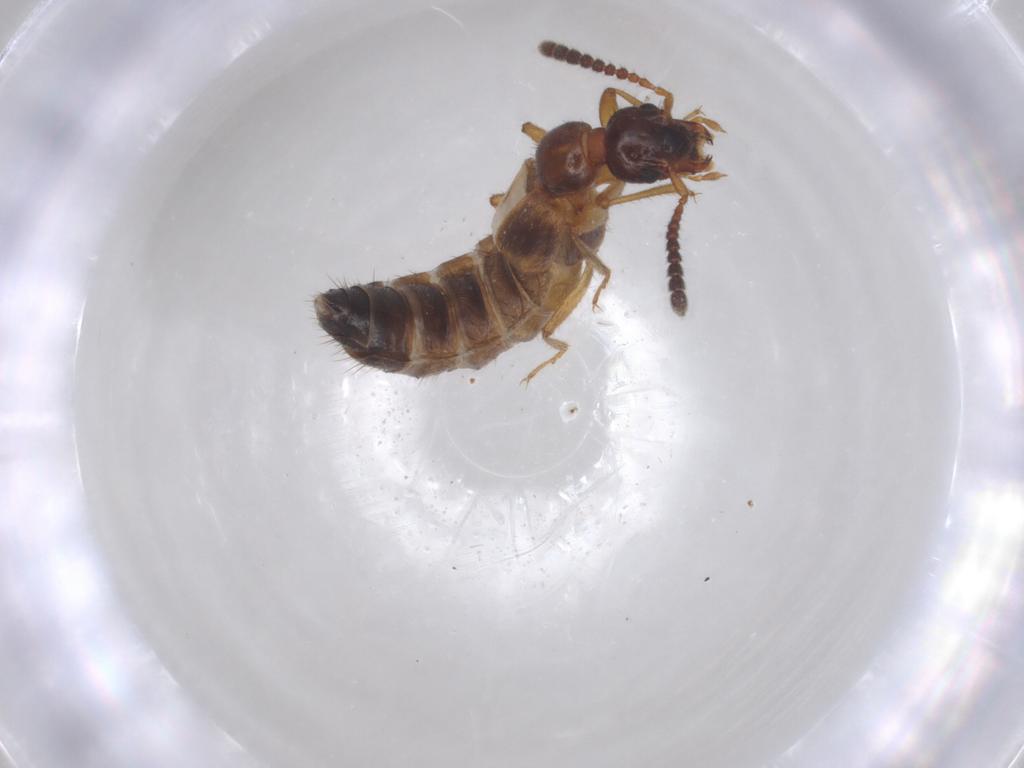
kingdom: Animalia
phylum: Arthropoda
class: Insecta
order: Coleoptera
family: Staphylinidae
